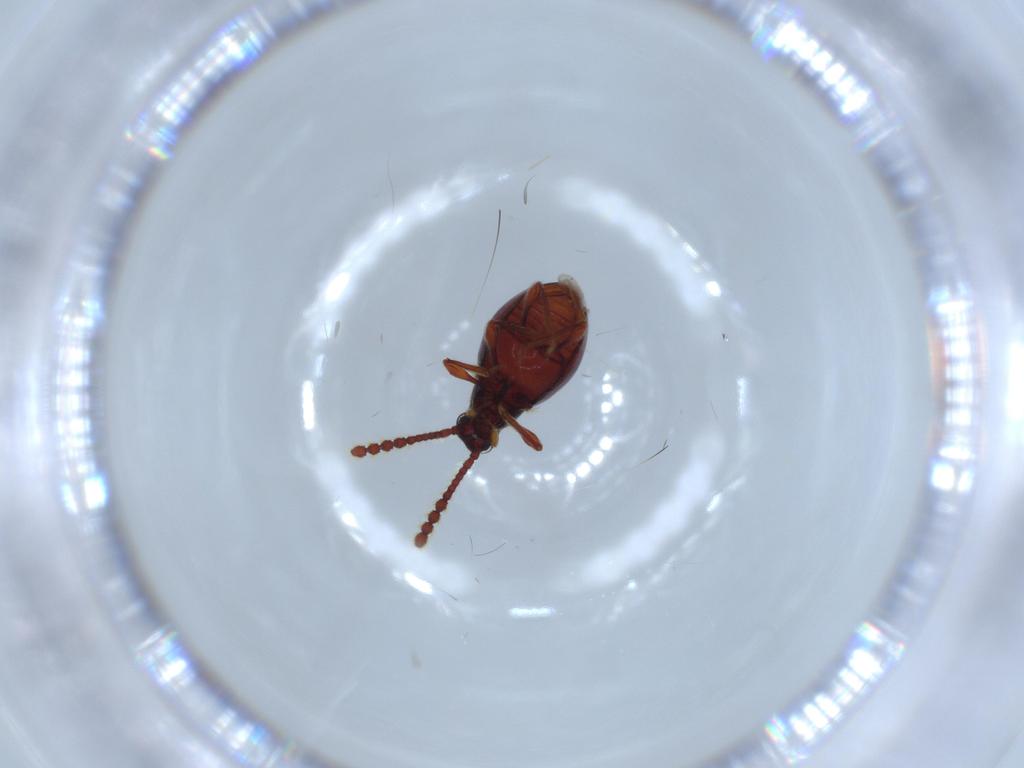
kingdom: Animalia
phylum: Arthropoda
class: Insecta
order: Coleoptera
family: Staphylinidae
